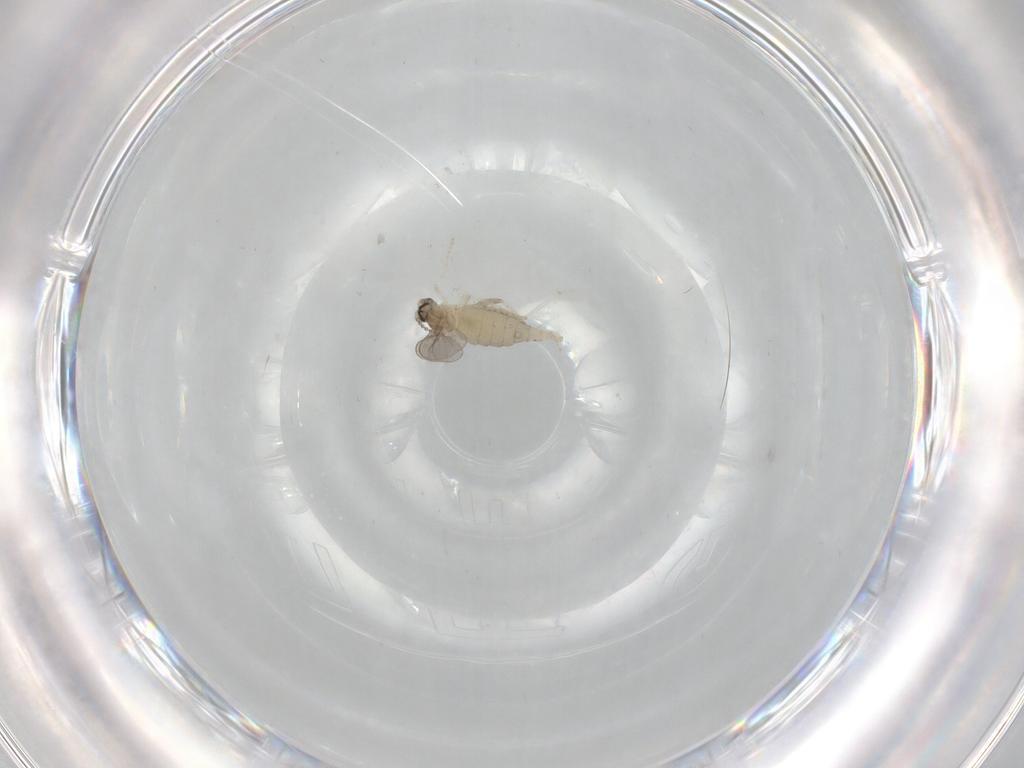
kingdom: Animalia
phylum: Arthropoda
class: Insecta
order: Diptera
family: Cecidomyiidae
